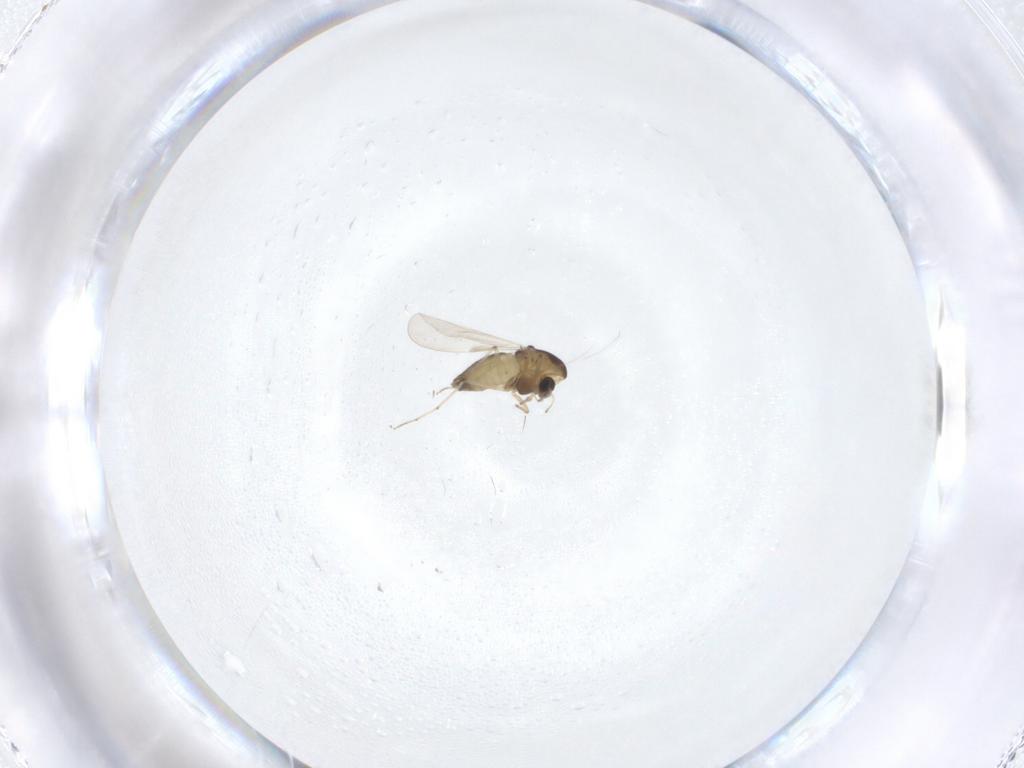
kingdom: Animalia
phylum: Arthropoda
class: Insecta
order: Diptera
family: Chironomidae
